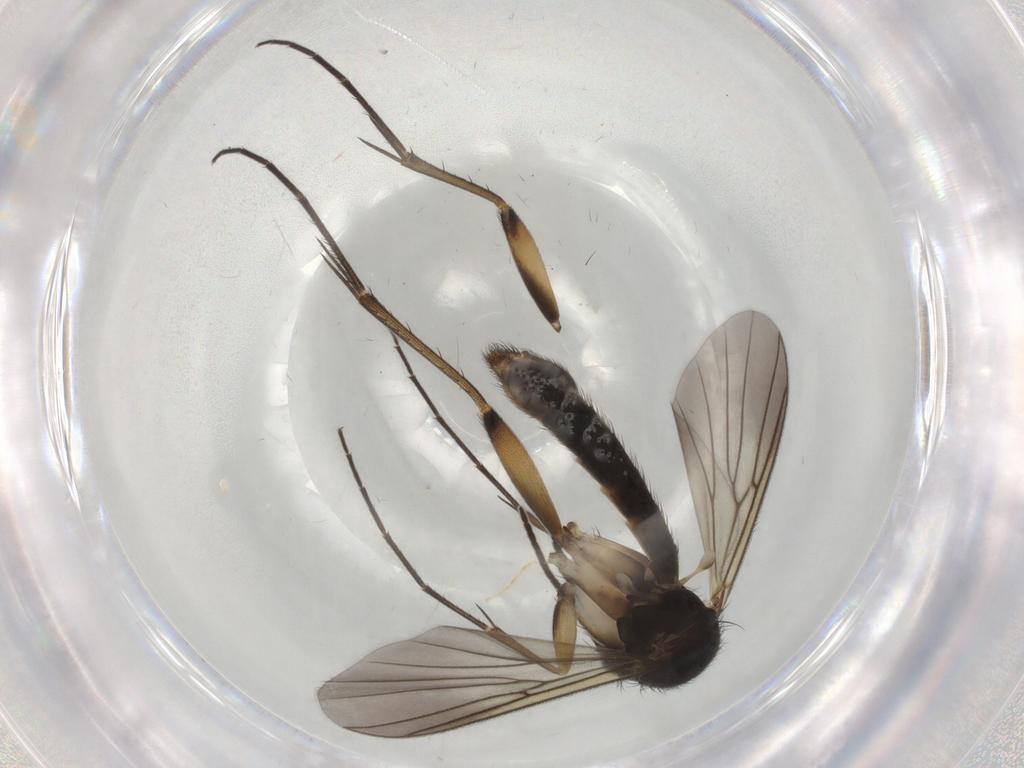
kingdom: Animalia
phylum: Arthropoda
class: Insecta
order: Diptera
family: Mycetophilidae
